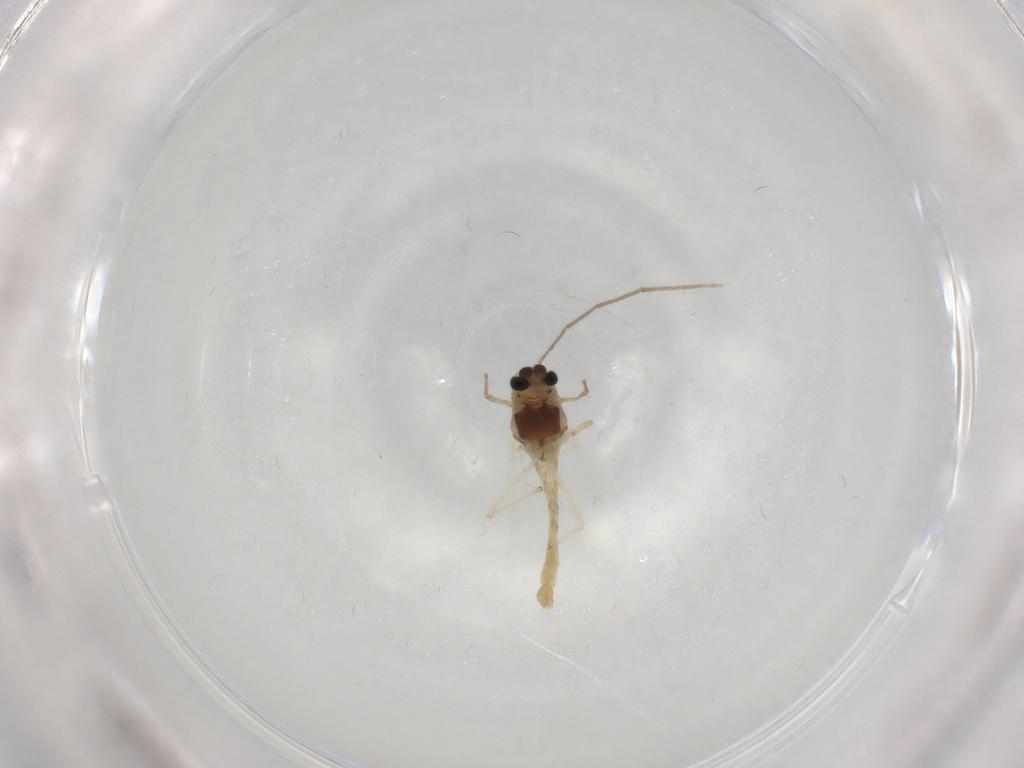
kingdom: Animalia
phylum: Arthropoda
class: Insecta
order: Diptera
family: Chironomidae
